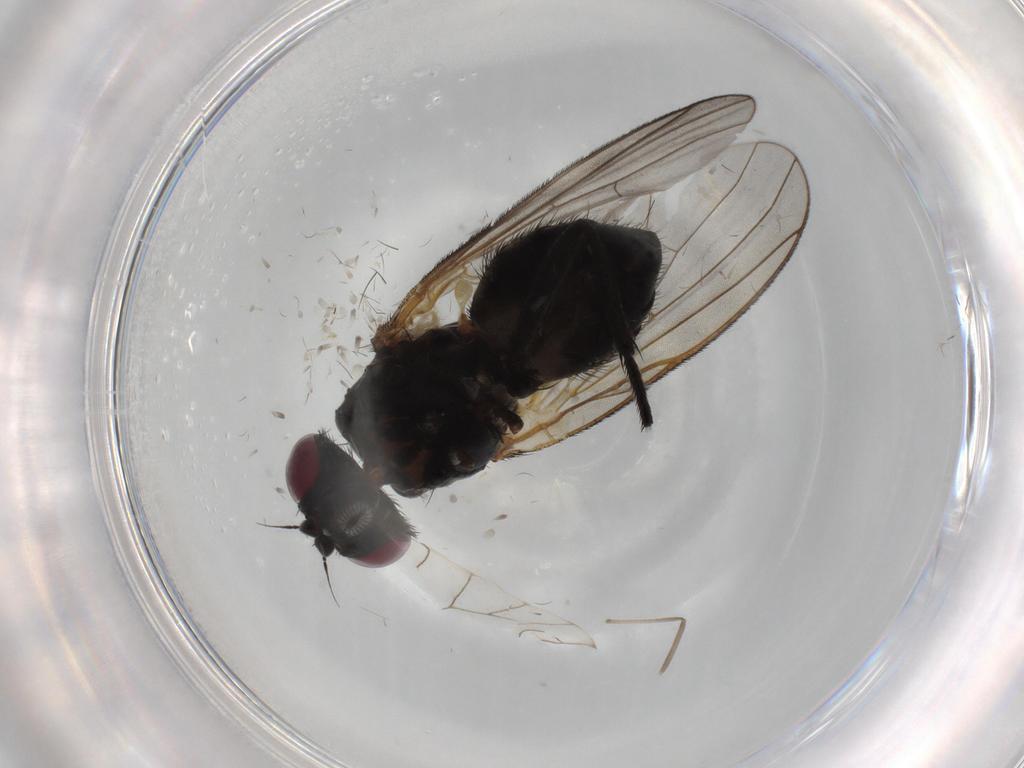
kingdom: Animalia
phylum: Arthropoda
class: Insecta
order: Diptera
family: Fannia
